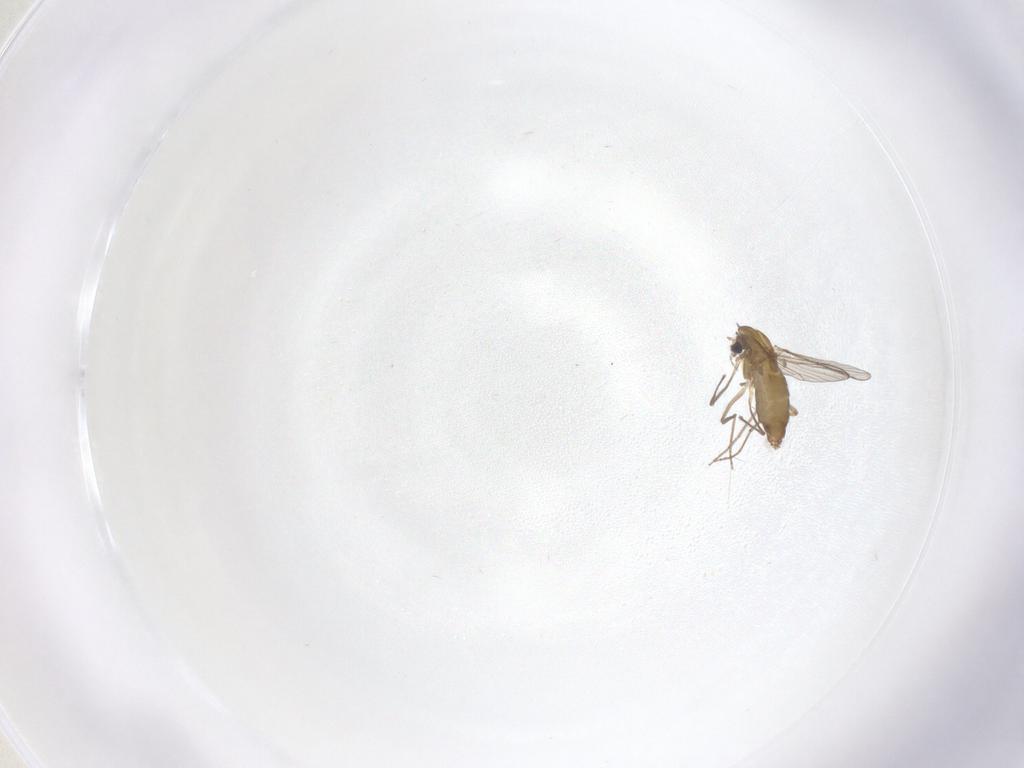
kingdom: Animalia
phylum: Arthropoda
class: Insecta
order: Diptera
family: Chironomidae
